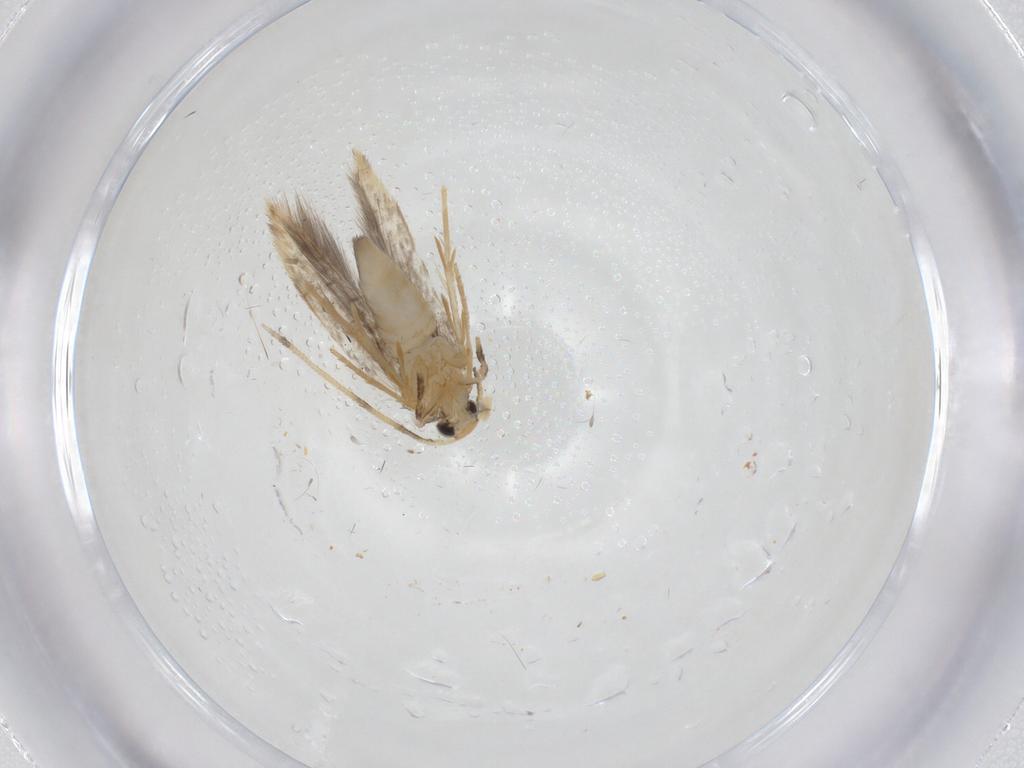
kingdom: Animalia
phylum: Arthropoda
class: Insecta
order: Lepidoptera
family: Tineidae
